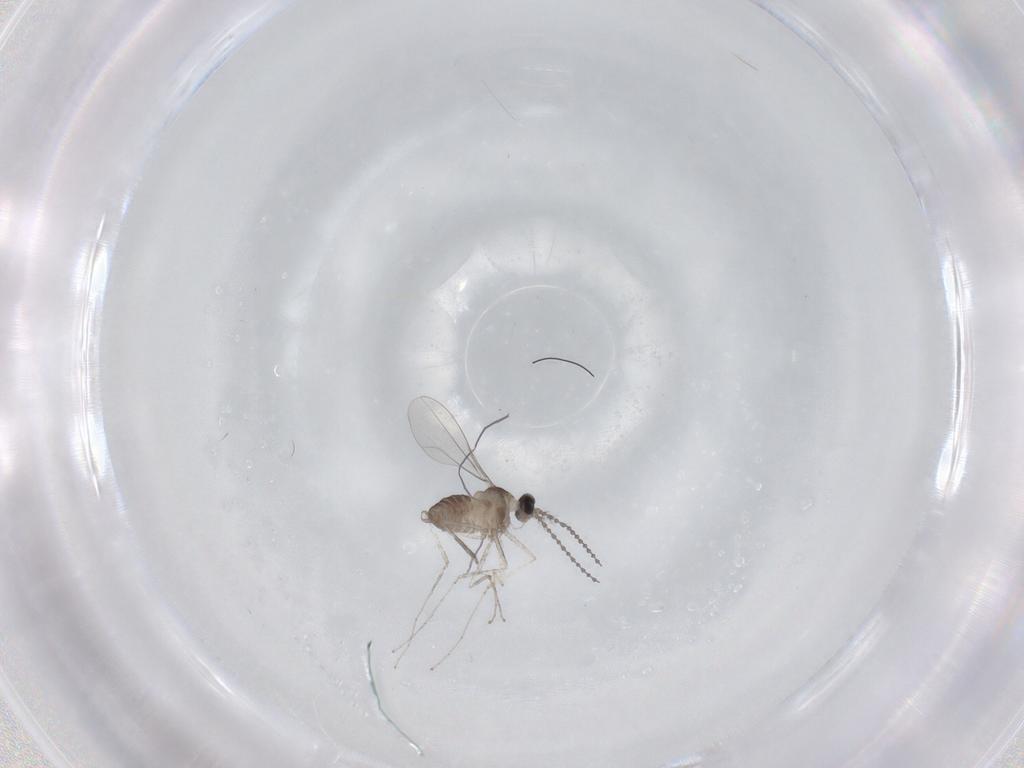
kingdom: Animalia
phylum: Arthropoda
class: Insecta
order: Diptera
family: Cecidomyiidae
